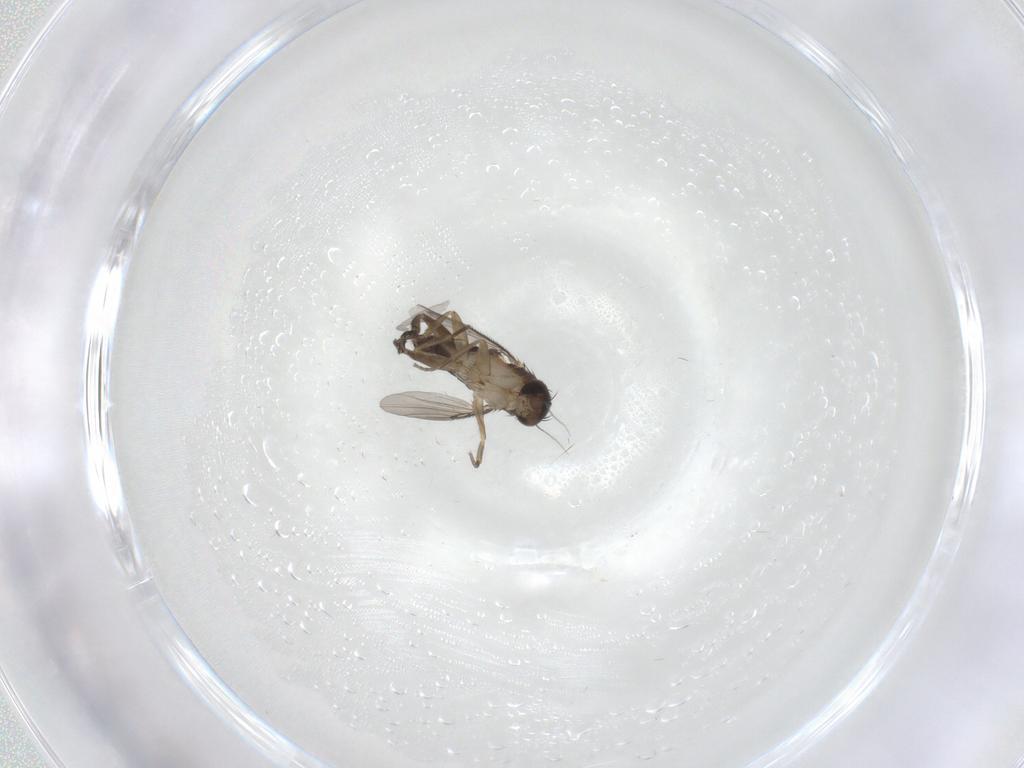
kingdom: Animalia
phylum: Arthropoda
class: Insecta
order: Diptera
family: Phoridae
